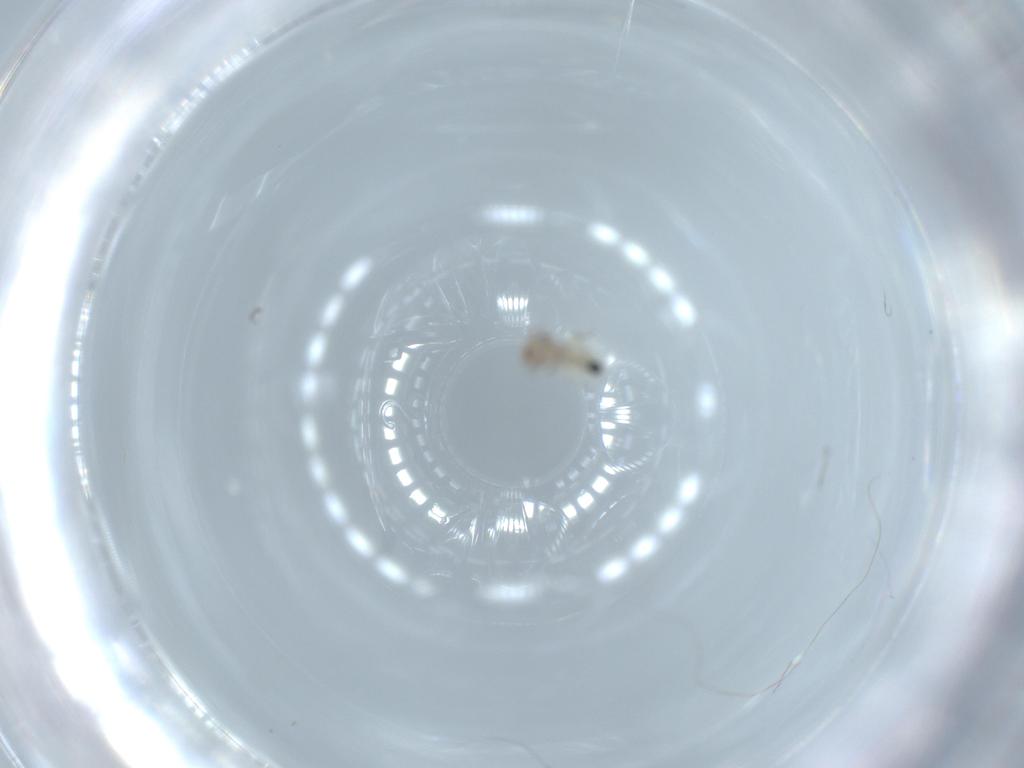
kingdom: Animalia
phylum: Arthropoda
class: Insecta
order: Psocodea
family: Lepidopsocidae
